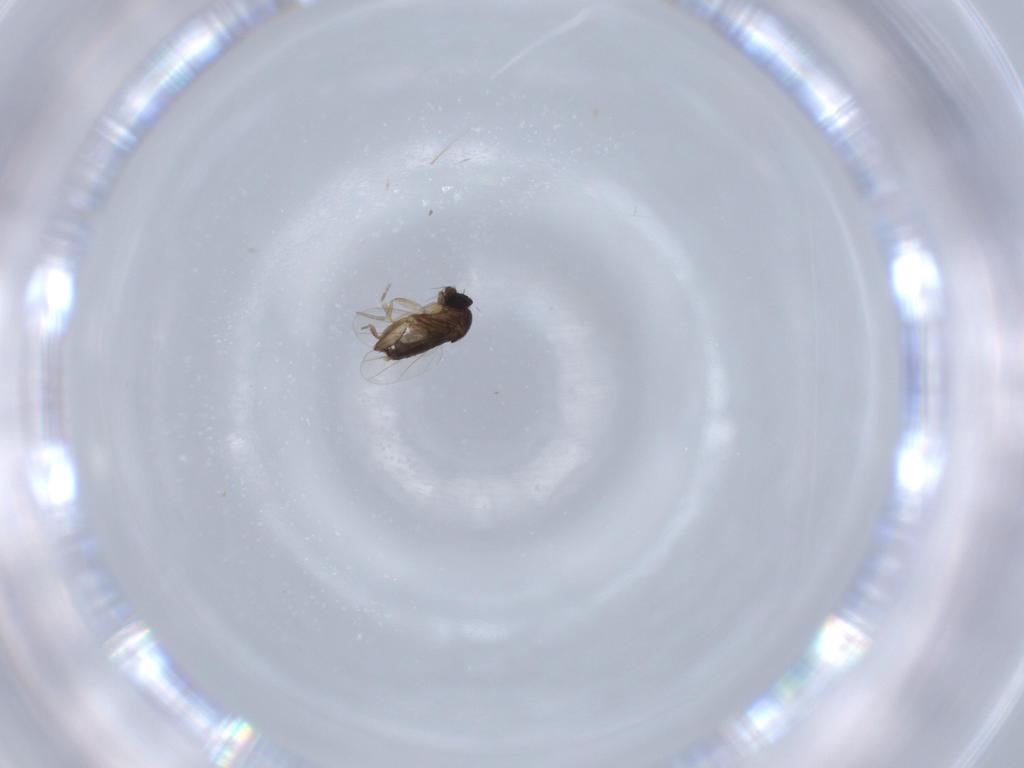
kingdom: Animalia
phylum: Arthropoda
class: Insecta
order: Diptera
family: Phoridae
